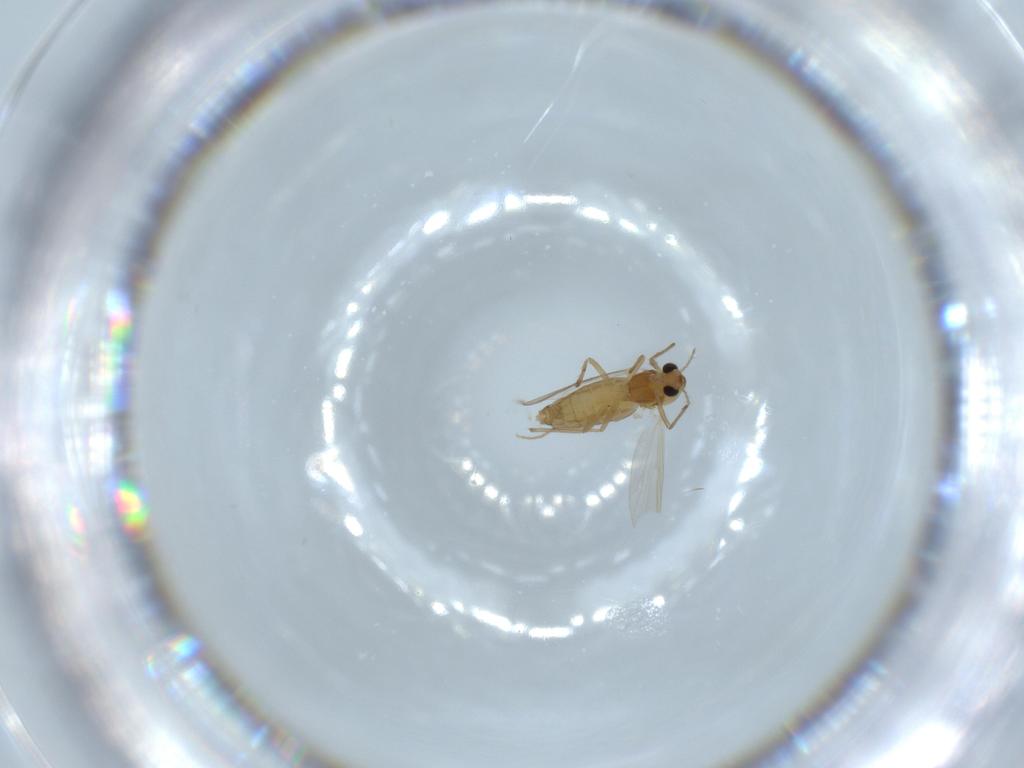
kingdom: Animalia
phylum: Arthropoda
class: Insecta
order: Diptera
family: Chironomidae
